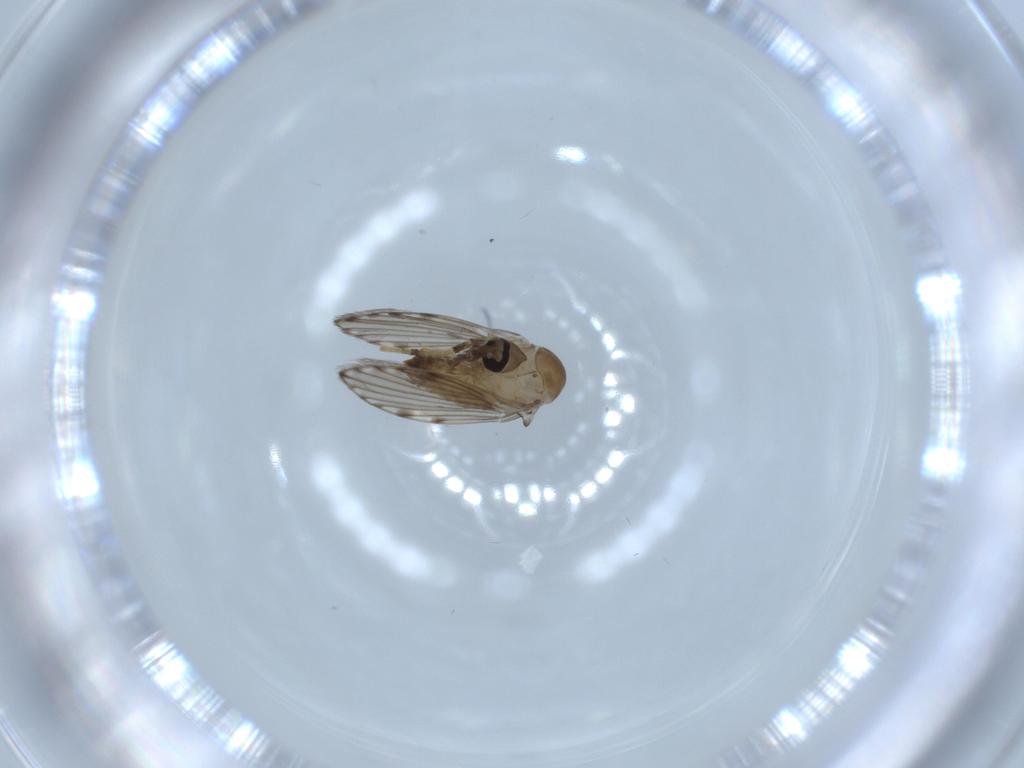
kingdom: Animalia
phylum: Arthropoda
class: Insecta
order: Diptera
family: Psychodidae
